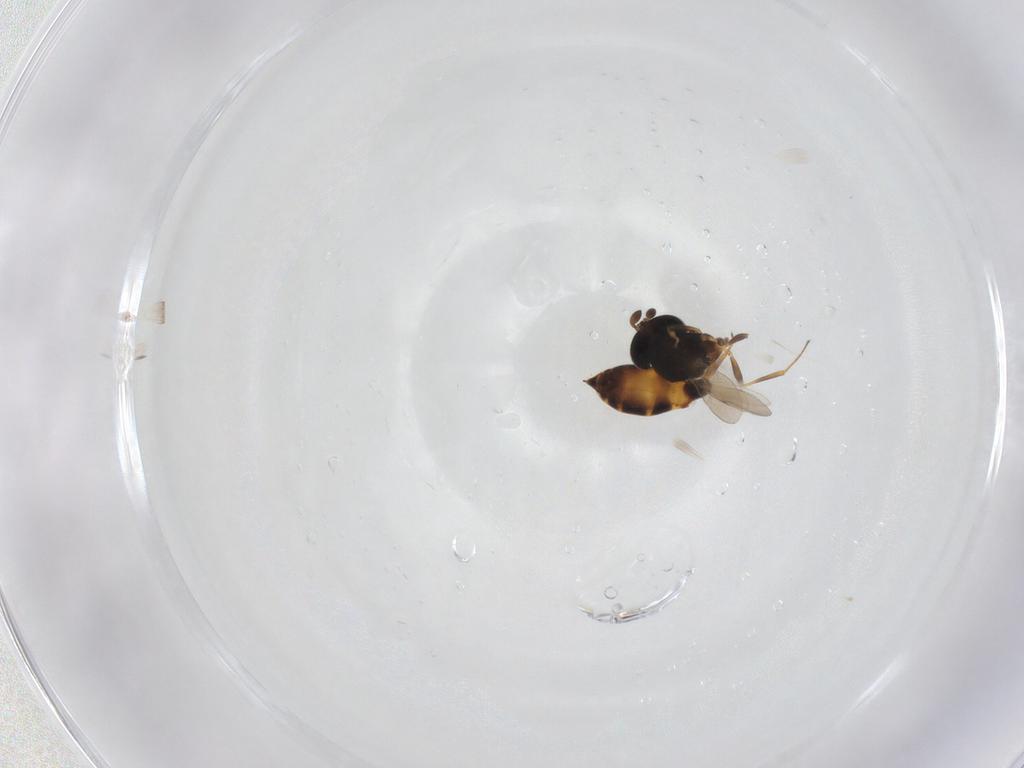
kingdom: Animalia
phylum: Arthropoda
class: Insecta
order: Hymenoptera
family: Scelionidae
